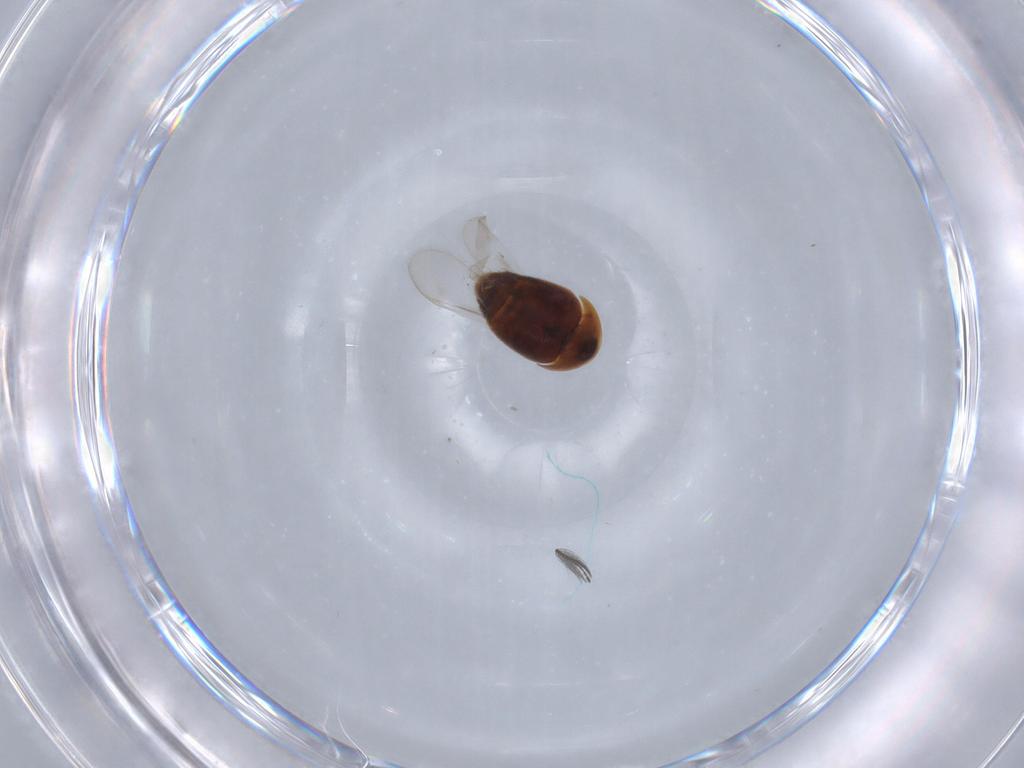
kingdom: Animalia
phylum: Arthropoda
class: Insecta
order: Coleoptera
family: Corylophidae
